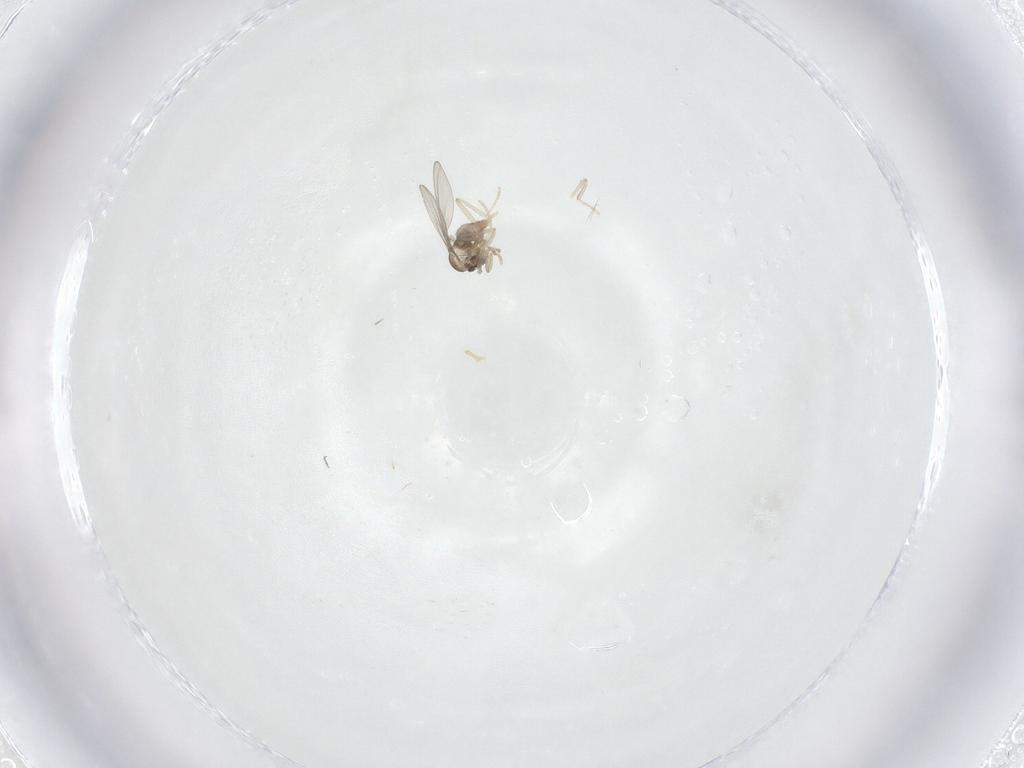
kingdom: Animalia
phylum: Arthropoda
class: Insecta
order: Diptera
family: Cecidomyiidae
